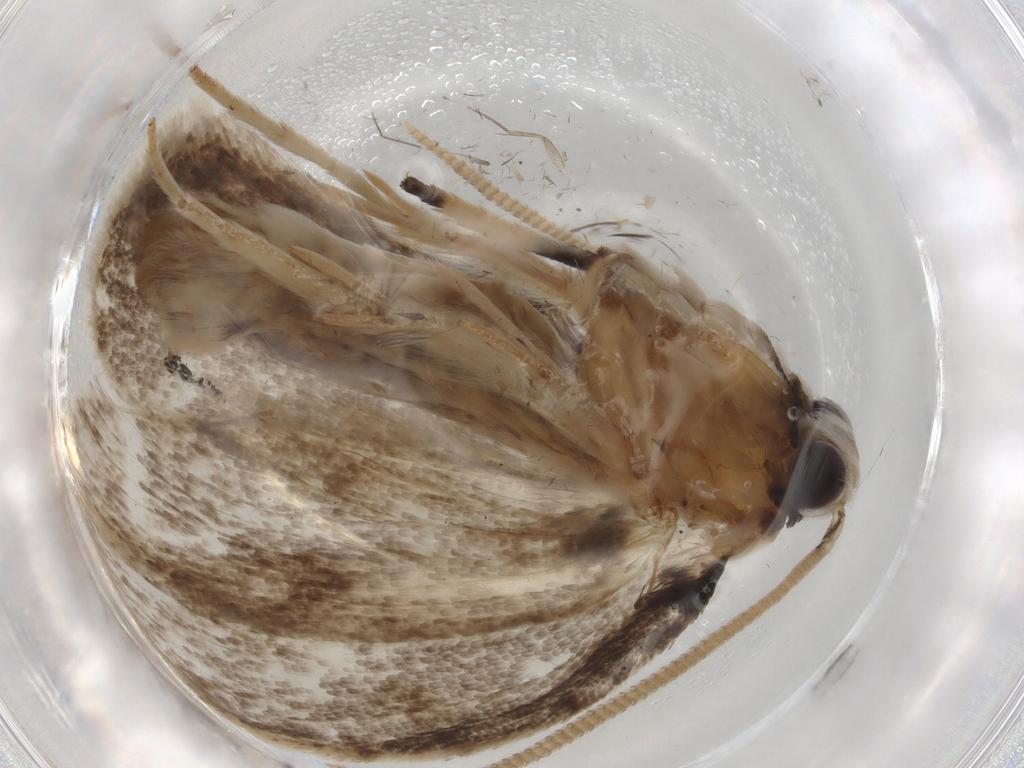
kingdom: Animalia
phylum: Arthropoda
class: Insecta
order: Lepidoptera
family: Tineidae
